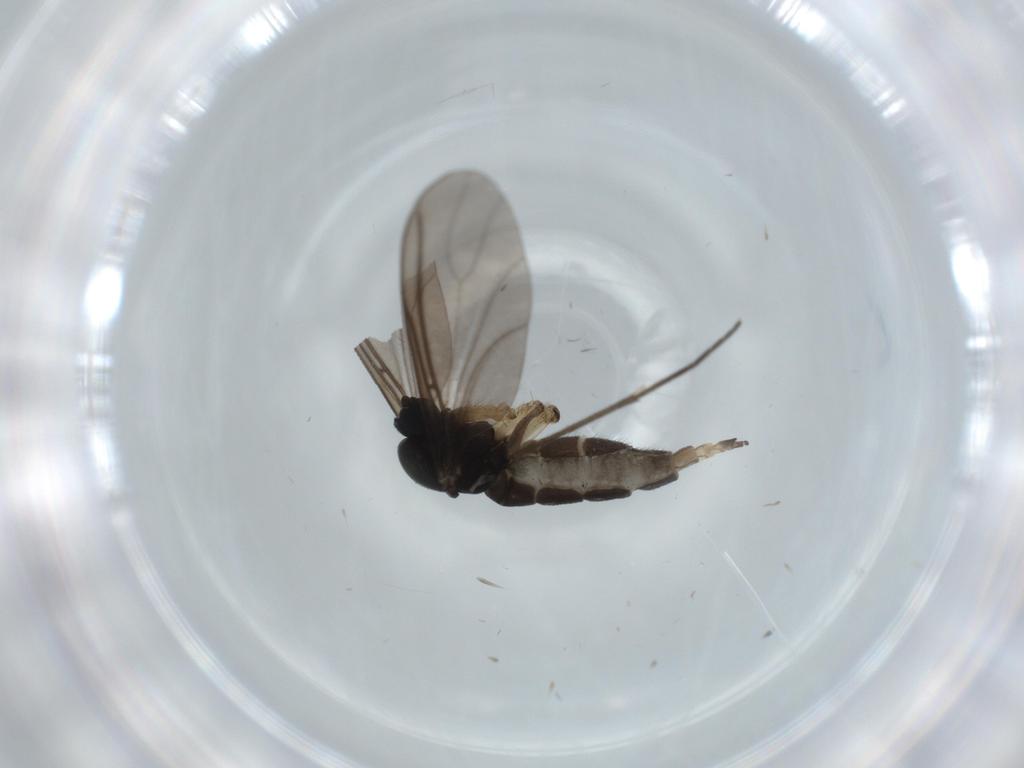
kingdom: Animalia
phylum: Arthropoda
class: Insecta
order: Diptera
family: Sciaridae
